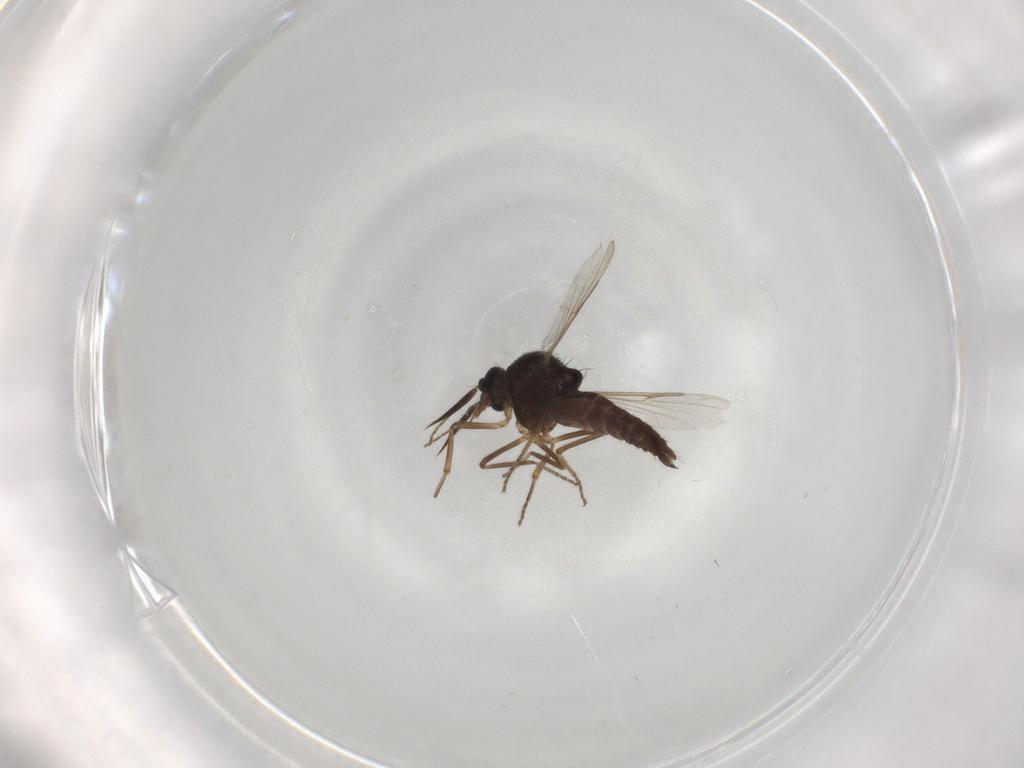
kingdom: Animalia
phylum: Arthropoda
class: Insecta
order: Diptera
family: Ceratopogonidae
